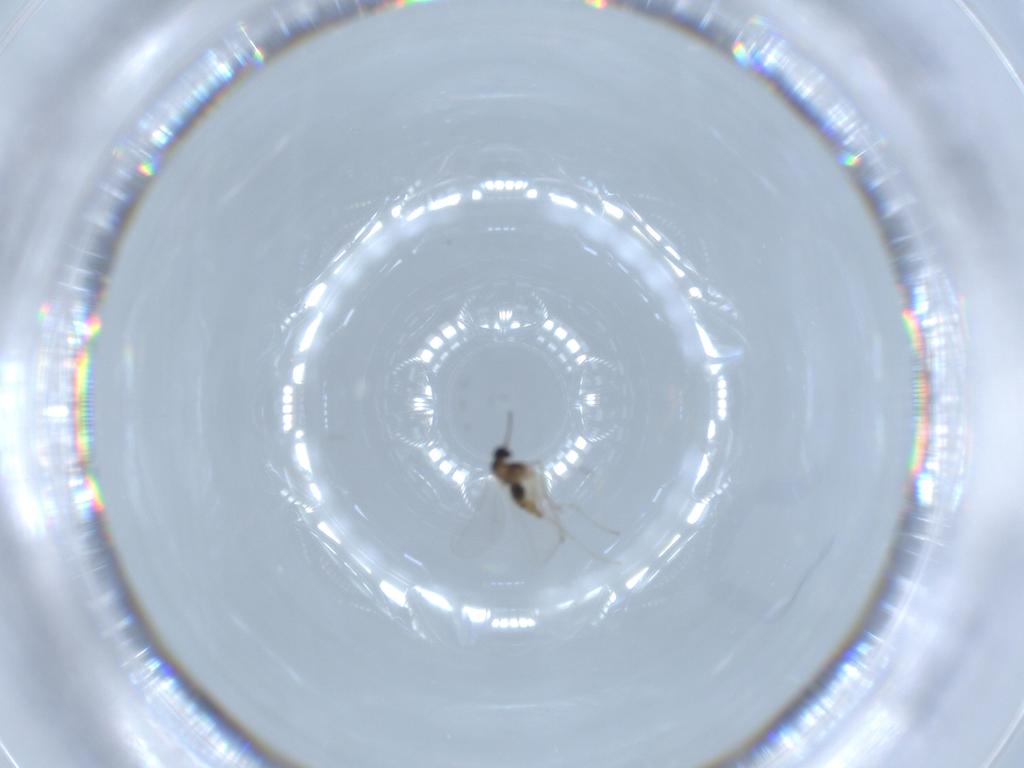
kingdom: Animalia
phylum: Arthropoda
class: Insecta
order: Diptera
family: Cecidomyiidae
